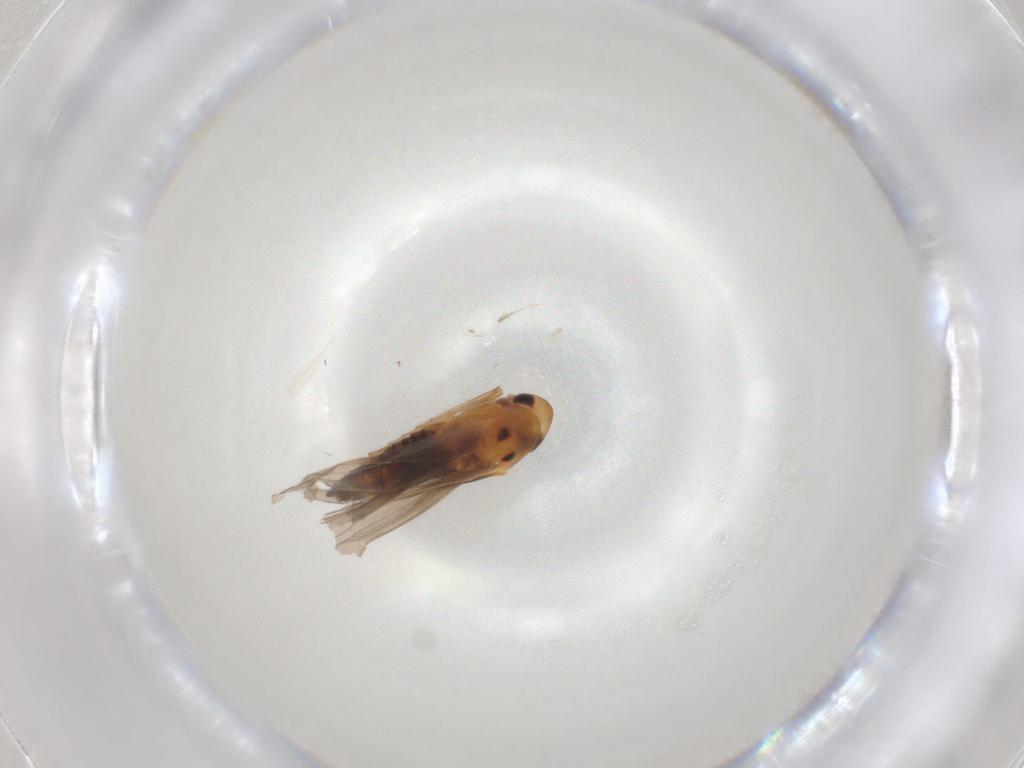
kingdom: Animalia
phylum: Arthropoda
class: Insecta
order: Hemiptera
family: Cicadellidae
